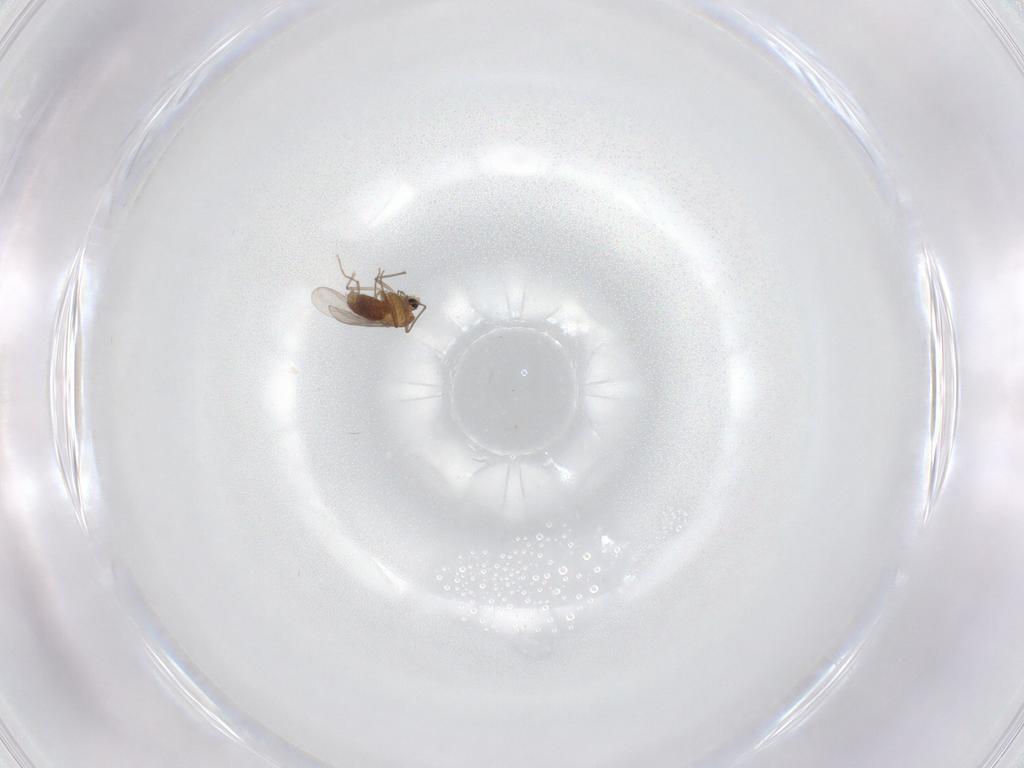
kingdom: Animalia
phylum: Arthropoda
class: Insecta
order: Diptera
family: Chironomidae
